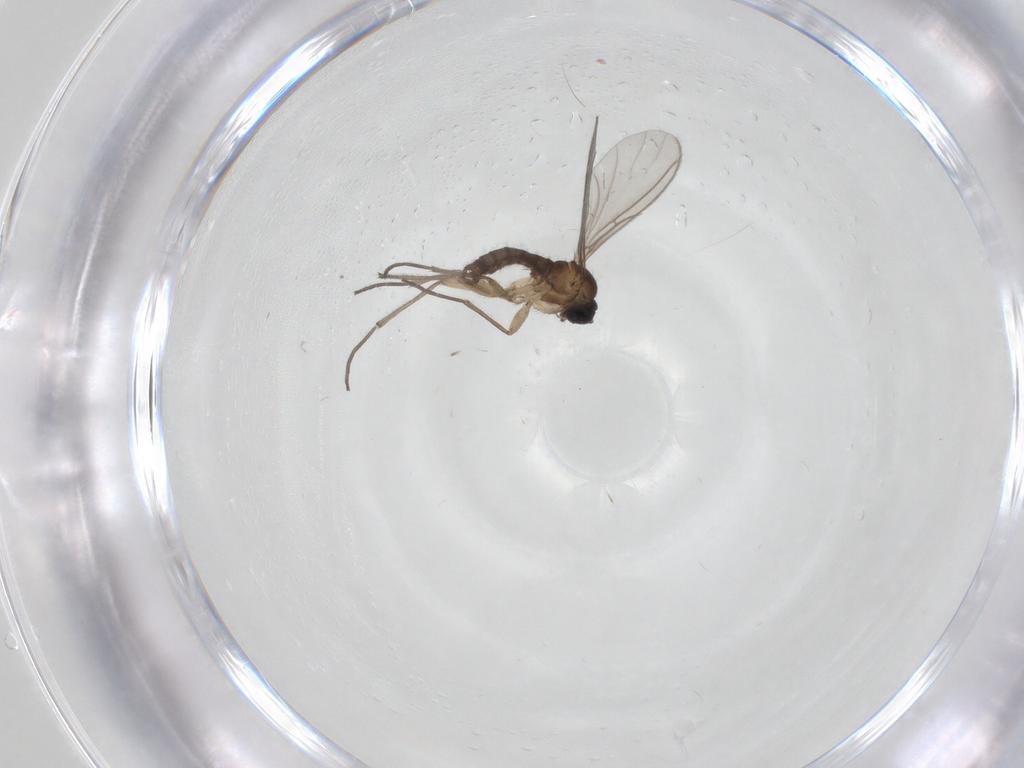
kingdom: Animalia
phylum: Arthropoda
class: Insecta
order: Diptera
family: Sciaridae
